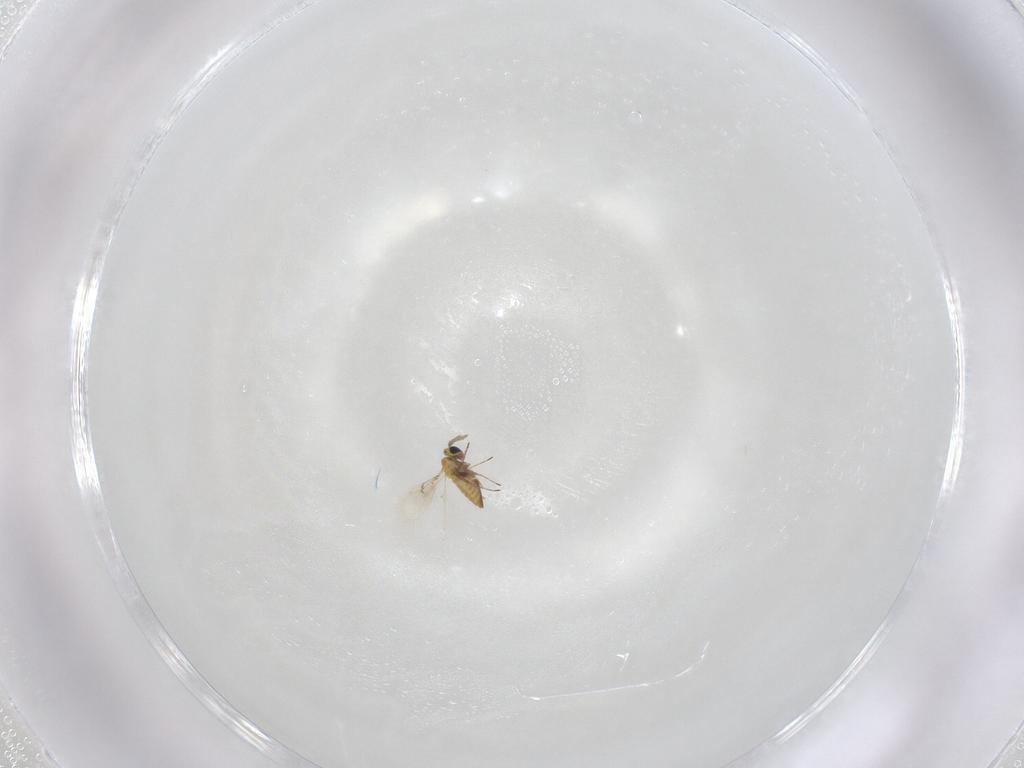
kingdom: Animalia
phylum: Arthropoda
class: Insecta
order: Hymenoptera
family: Trichogrammatidae
